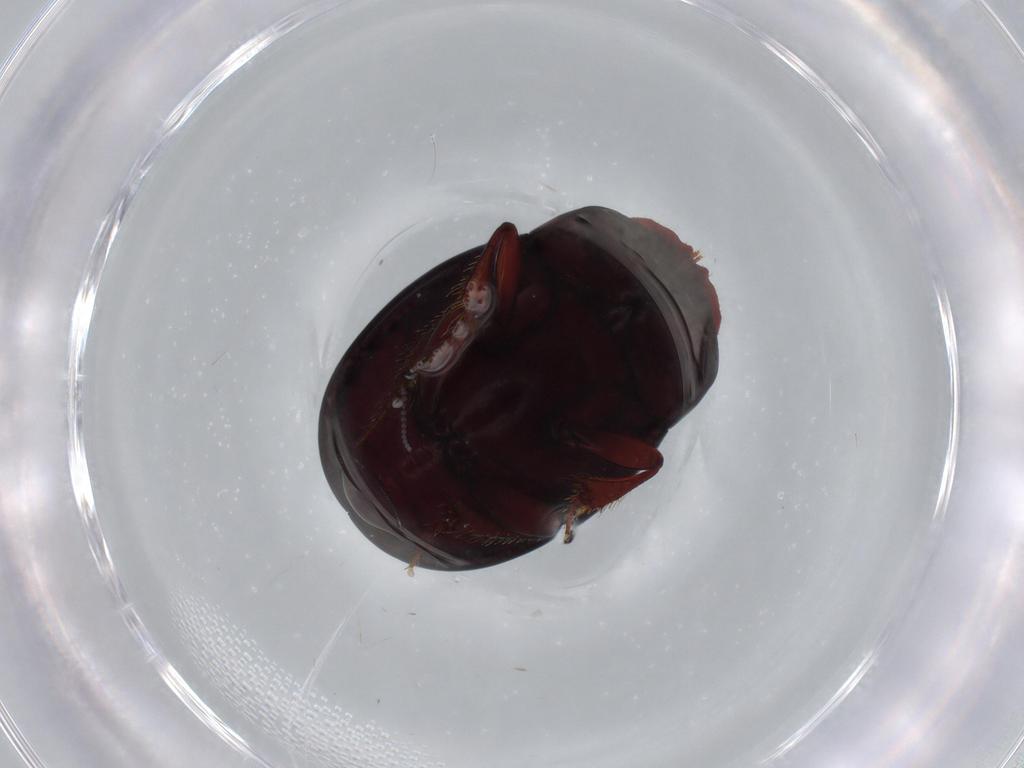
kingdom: Animalia
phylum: Arthropoda
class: Insecta
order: Coleoptera
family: Scarabaeidae
